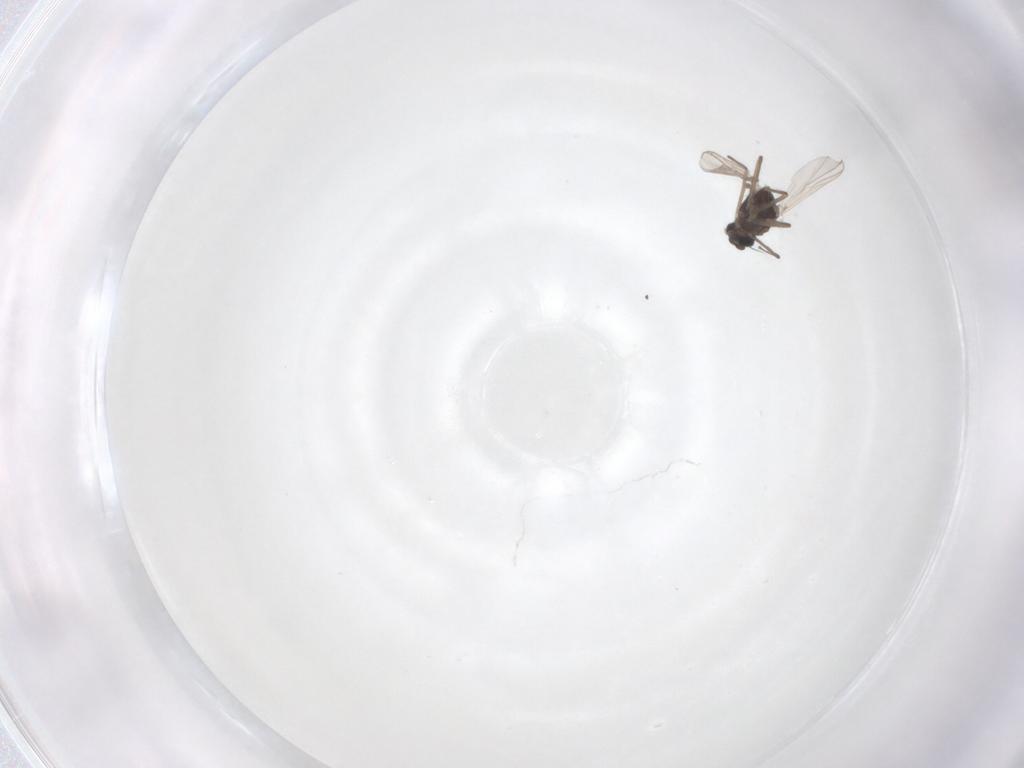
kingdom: Animalia
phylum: Arthropoda
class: Insecta
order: Diptera
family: Chironomidae
